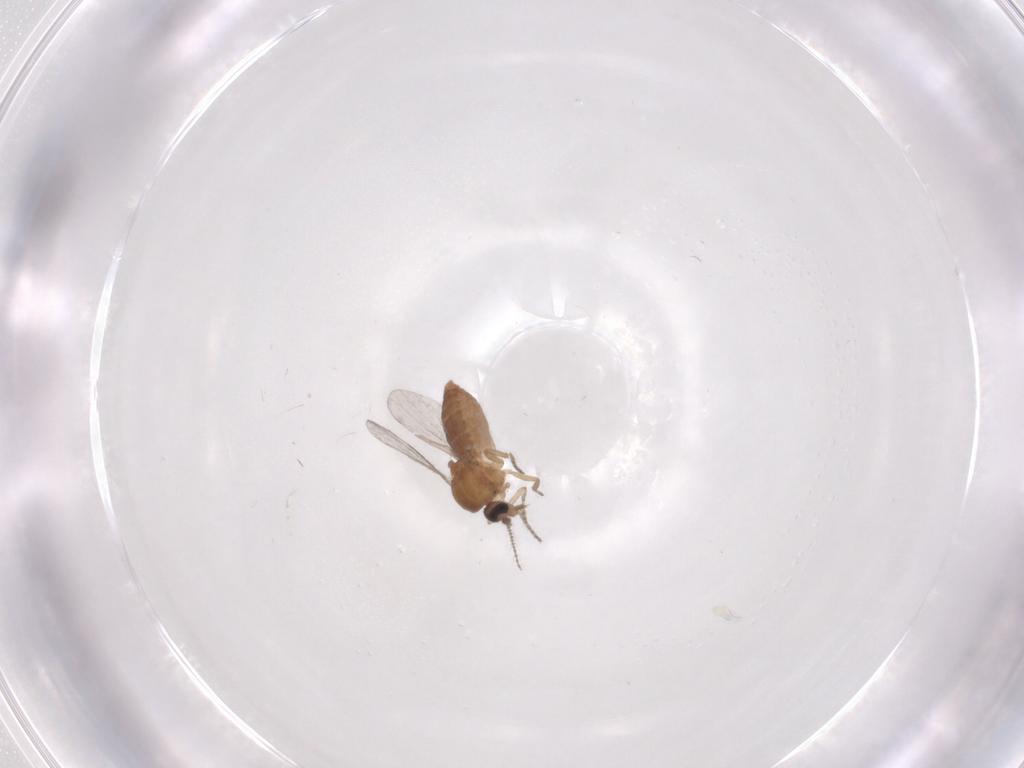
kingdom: Animalia
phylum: Arthropoda
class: Insecta
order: Diptera
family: Ceratopogonidae
